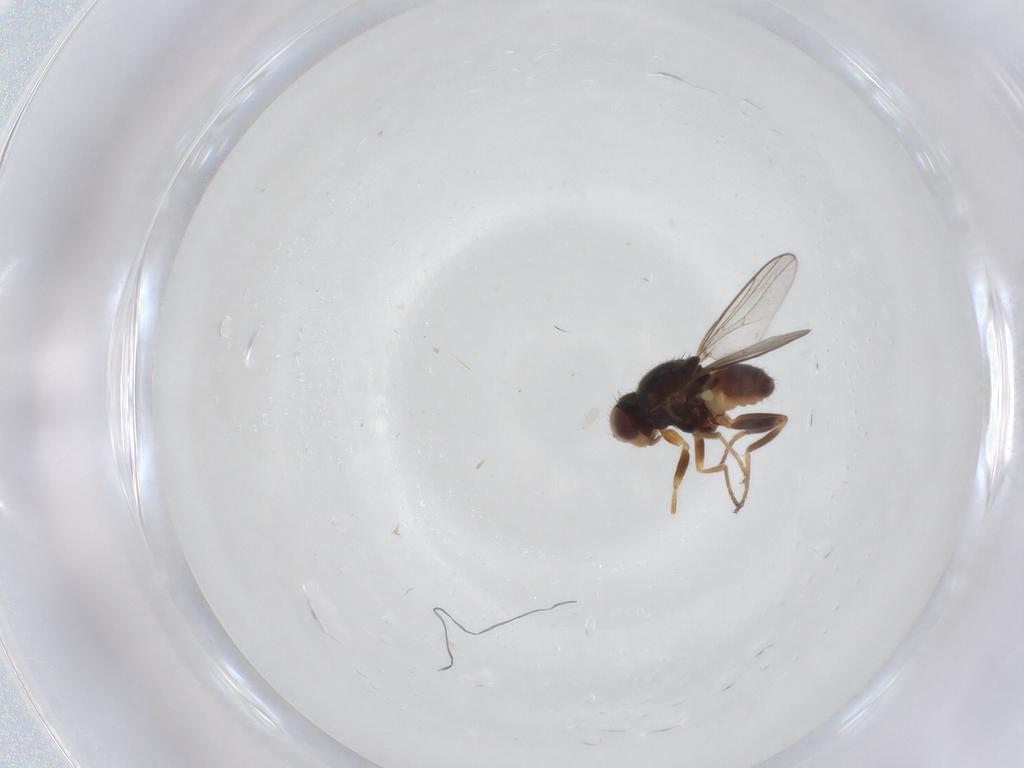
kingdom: Animalia
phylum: Arthropoda
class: Insecta
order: Diptera
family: Chloropidae
